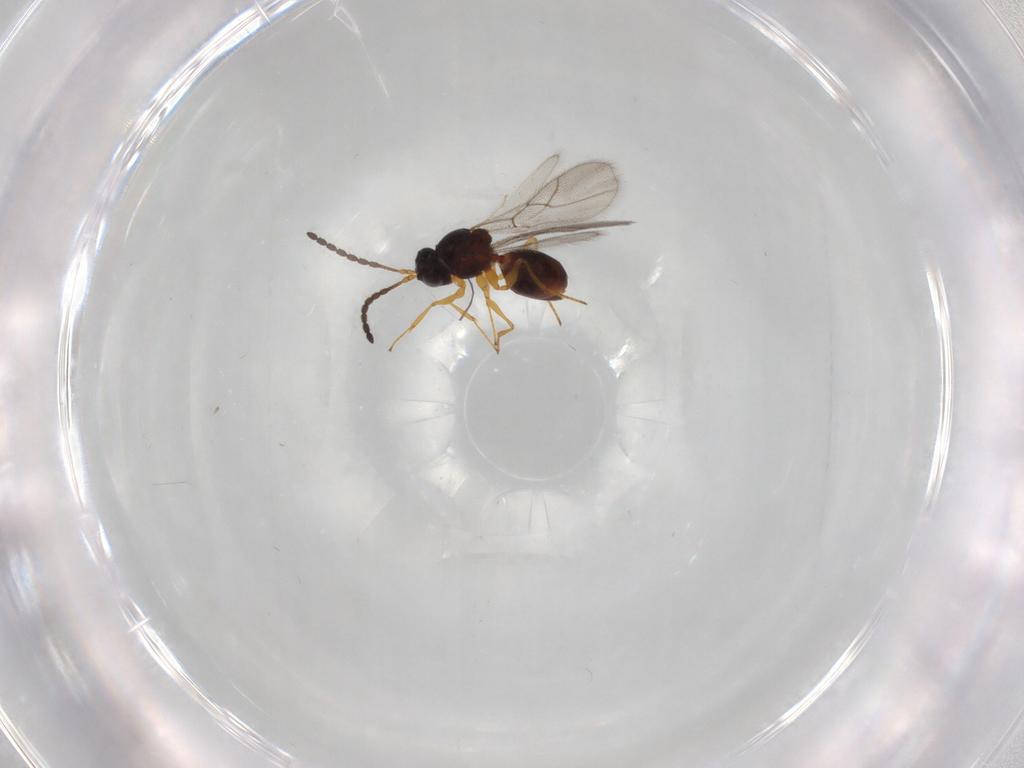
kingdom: Animalia
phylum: Arthropoda
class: Insecta
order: Hymenoptera
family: Figitidae
